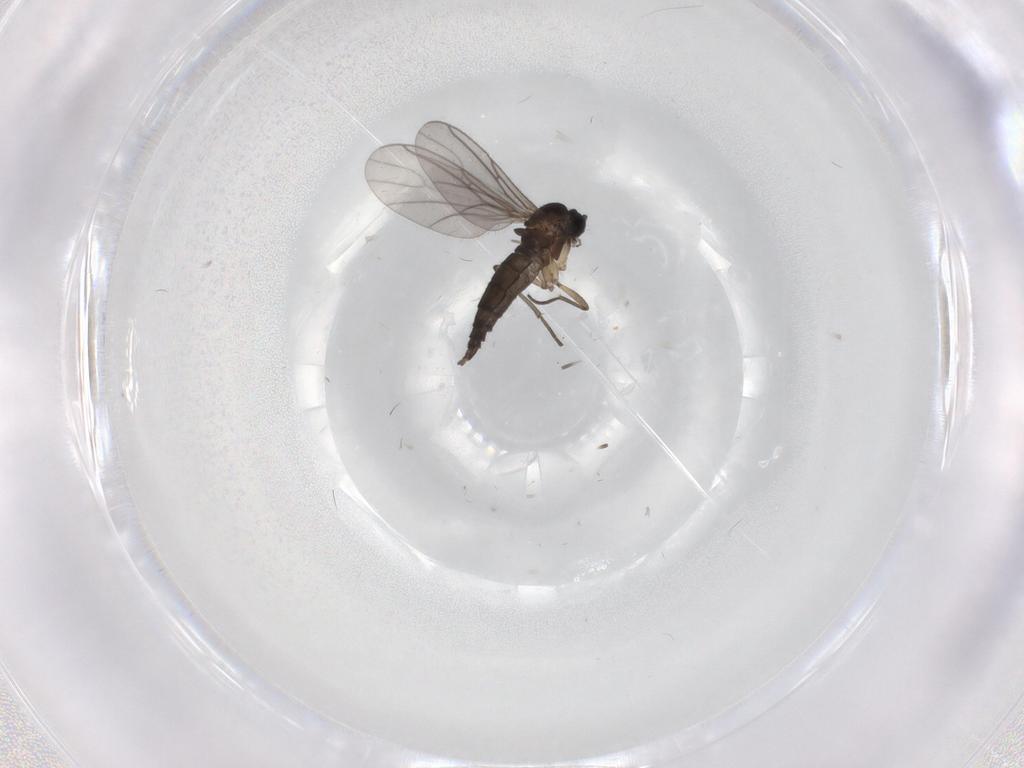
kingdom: Animalia
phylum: Arthropoda
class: Insecta
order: Diptera
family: Sciaridae
